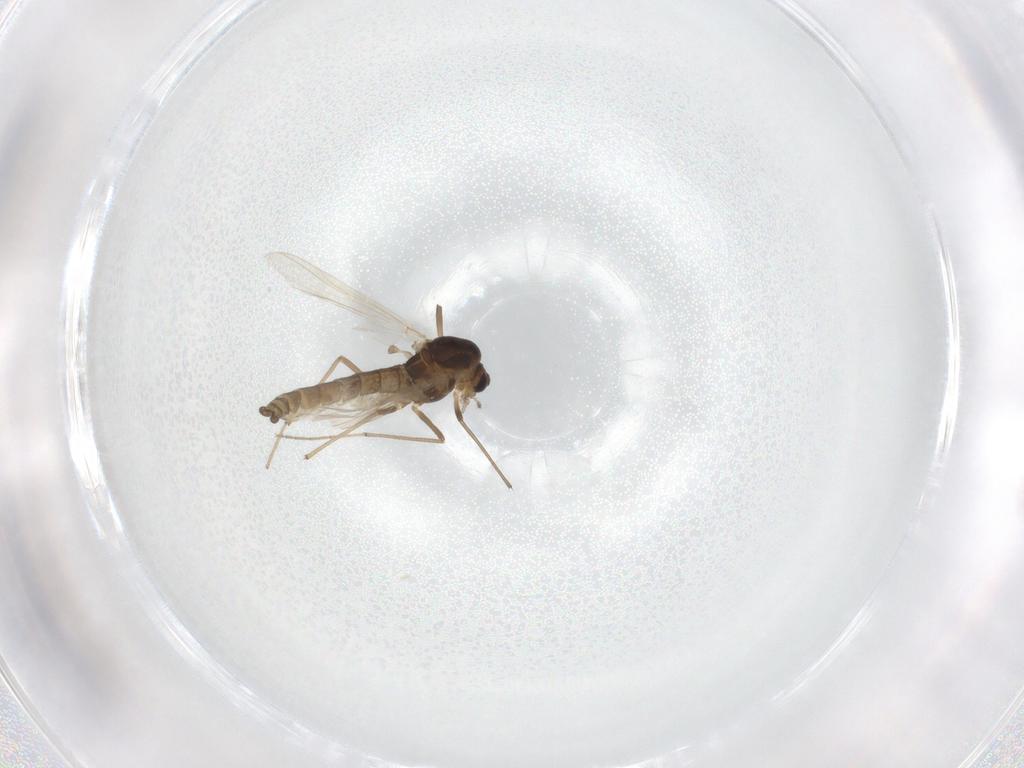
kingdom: Animalia
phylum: Arthropoda
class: Insecta
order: Diptera
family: Chironomidae
